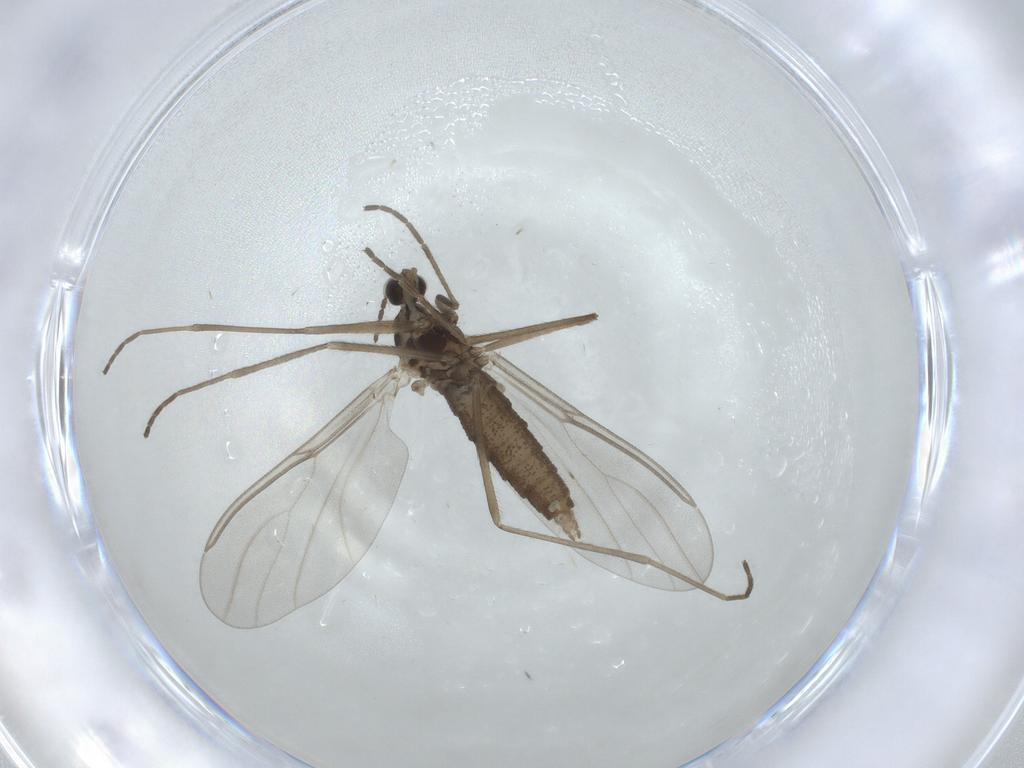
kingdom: Animalia
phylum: Arthropoda
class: Insecta
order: Diptera
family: Cecidomyiidae
